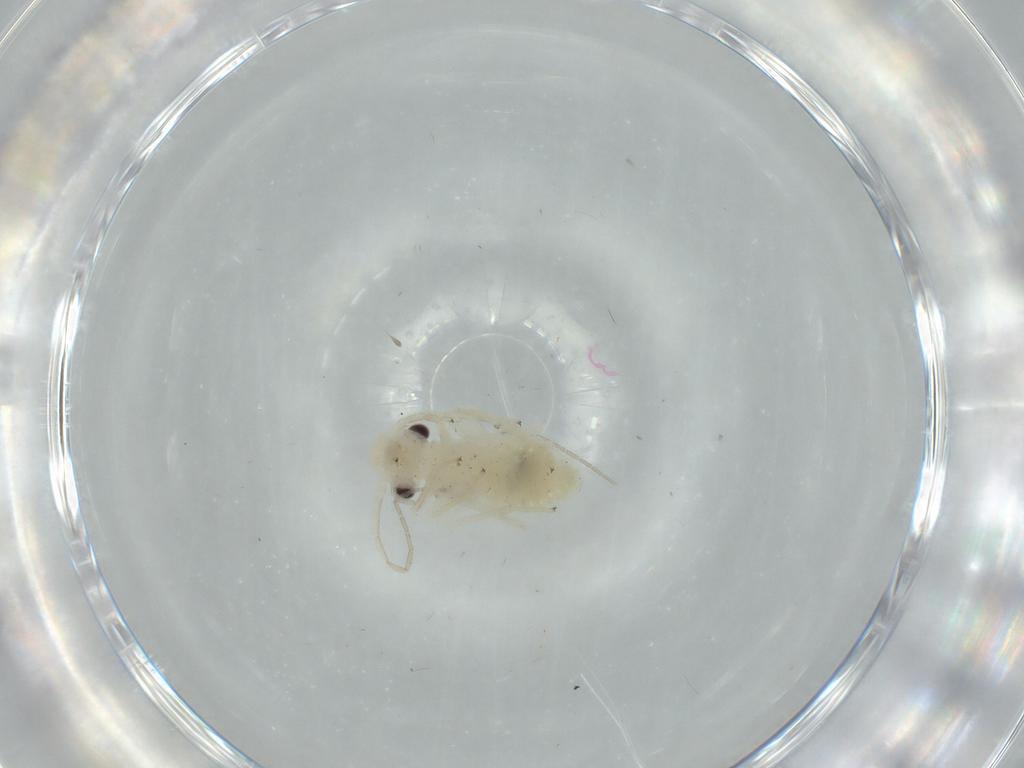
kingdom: Animalia
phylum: Arthropoda
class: Insecta
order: Psocodea
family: Caeciliusidae
